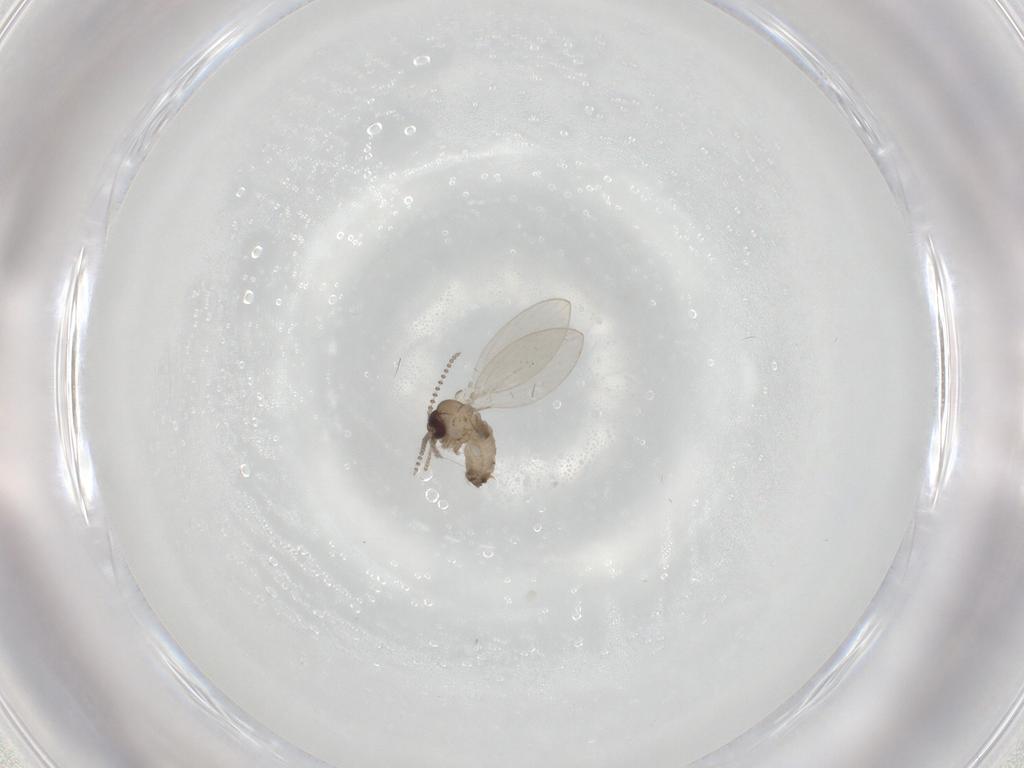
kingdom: Animalia
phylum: Arthropoda
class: Insecta
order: Diptera
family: Psychodidae
